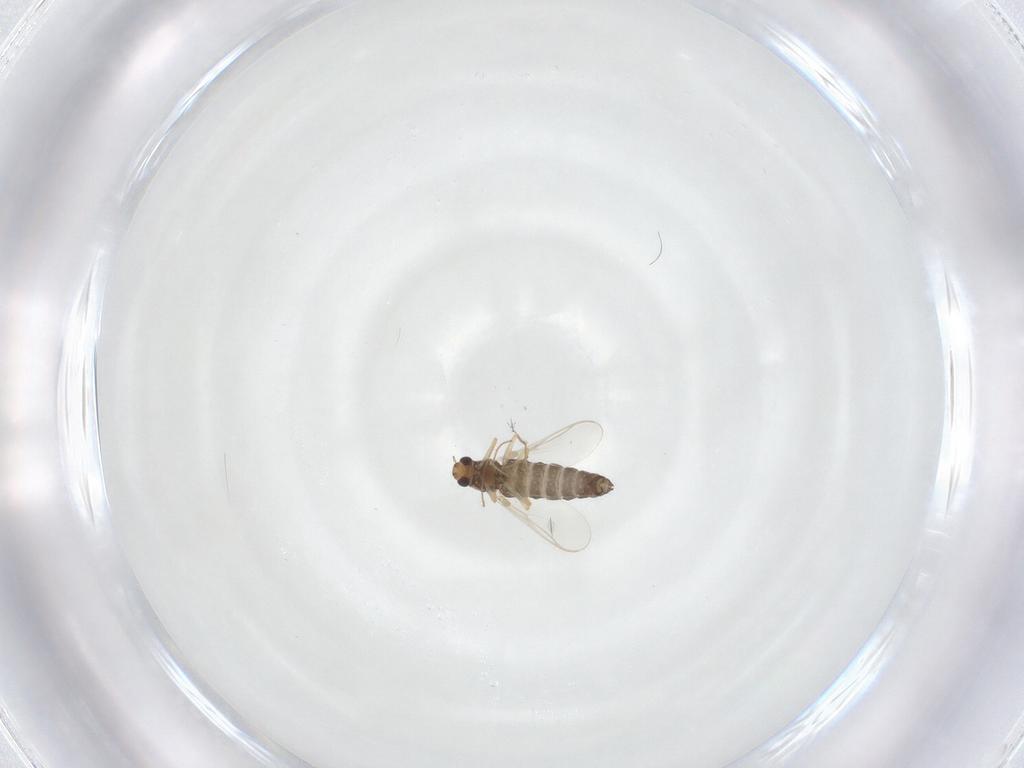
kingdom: Animalia
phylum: Arthropoda
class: Insecta
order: Diptera
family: Chironomidae
